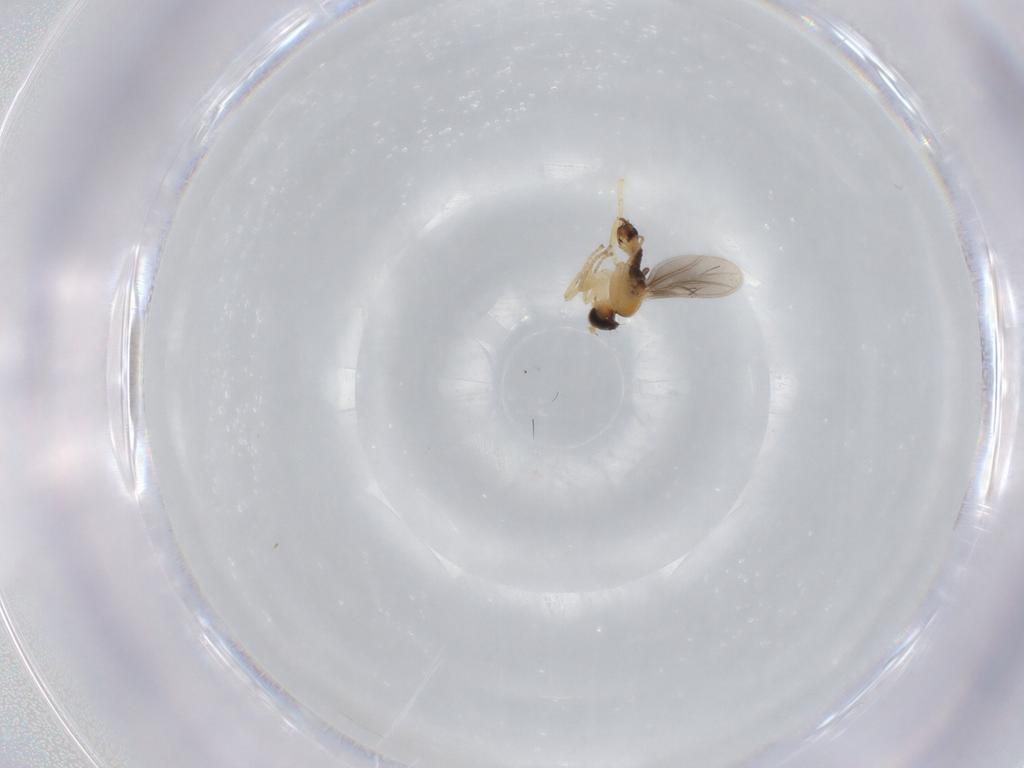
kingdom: Animalia
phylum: Arthropoda
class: Insecta
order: Diptera
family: Hybotidae
